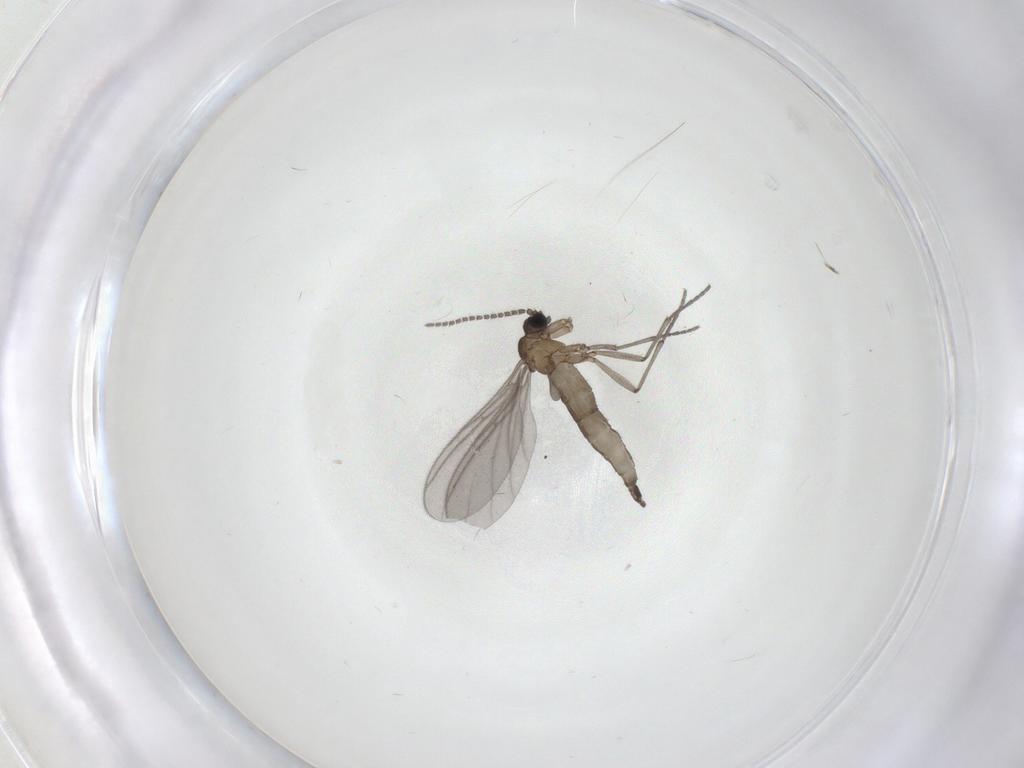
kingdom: Animalia
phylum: Arthropoda
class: Insecta
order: Diptera
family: Sciaridae
